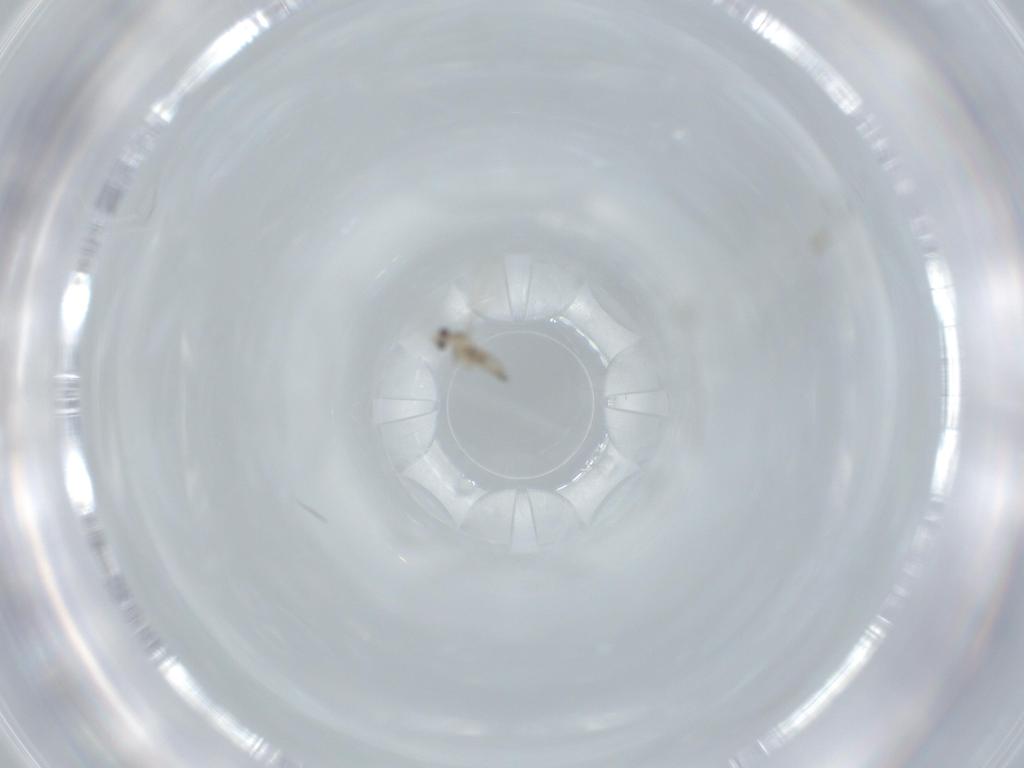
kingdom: Animalia
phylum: Arthropoda
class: Insecta
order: Diptera
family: Cecidomyiidae
